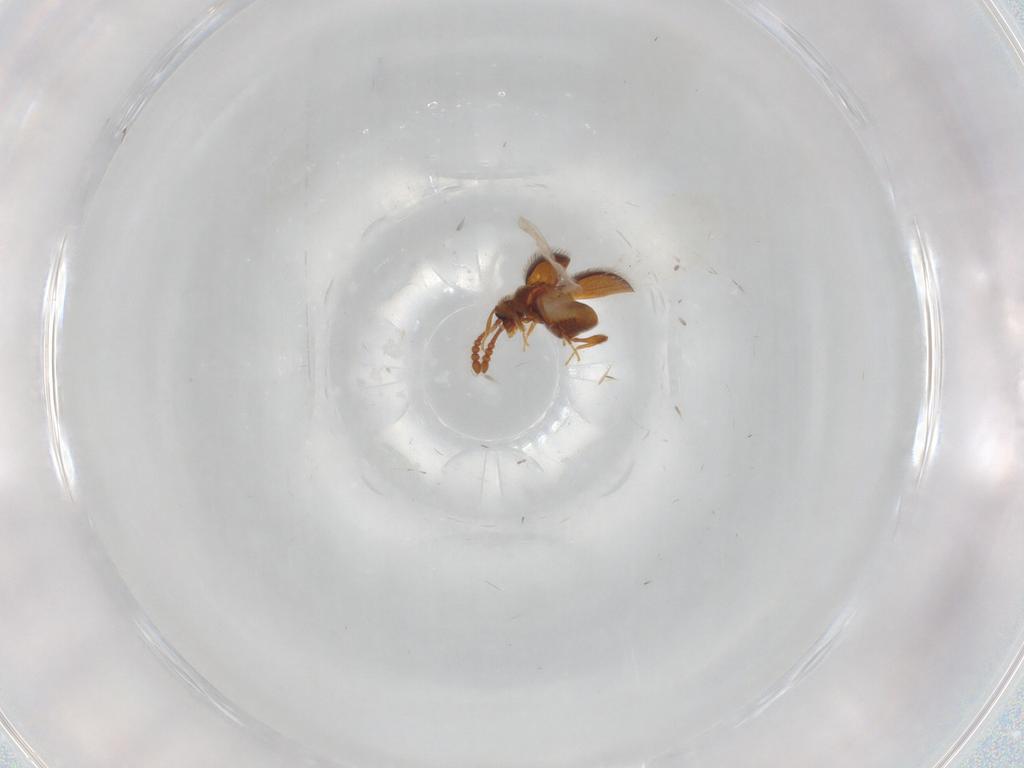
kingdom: Animalia
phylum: Arthropoda
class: Insecta
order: Coleoptera
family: Staphylinidae
